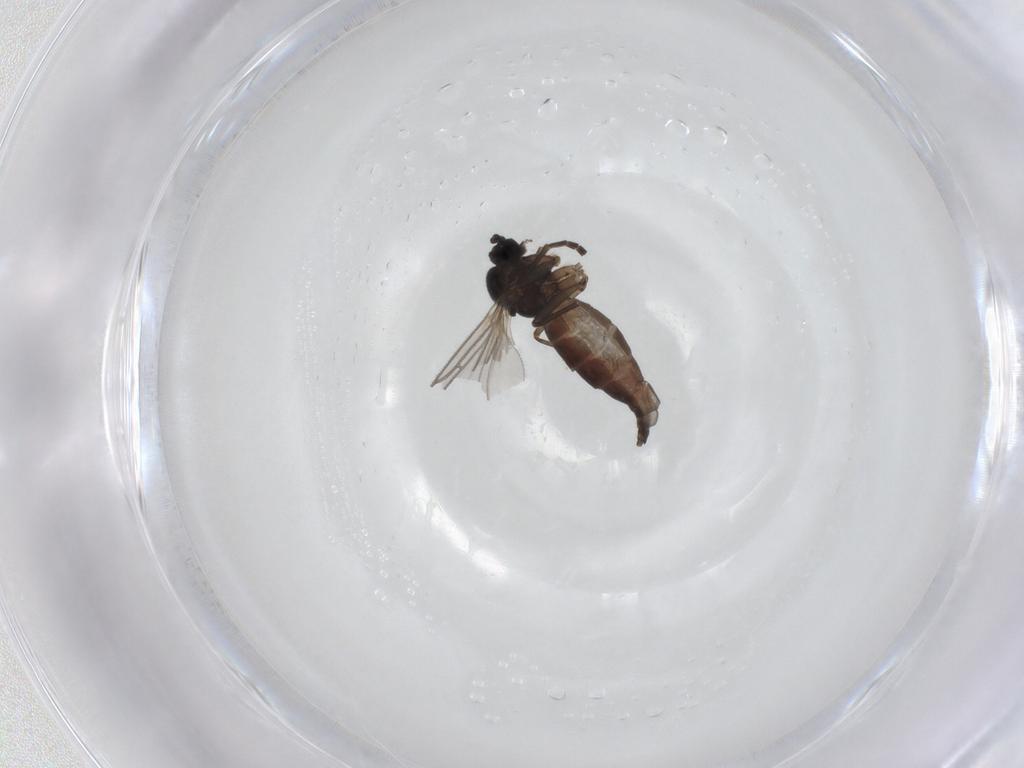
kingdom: Animalia
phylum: Arthropoda
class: Insecta
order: Diptera
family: Sciaridae
